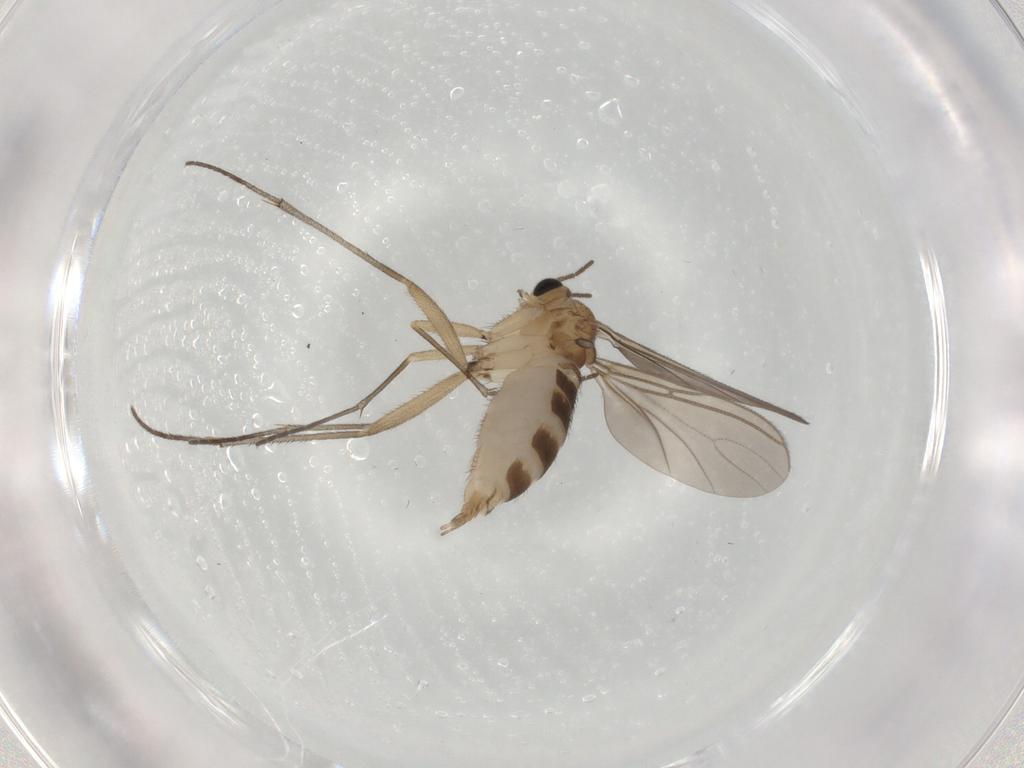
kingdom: Animalia
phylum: Arthropoda
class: Insecta
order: Diptera
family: Sciaridae
